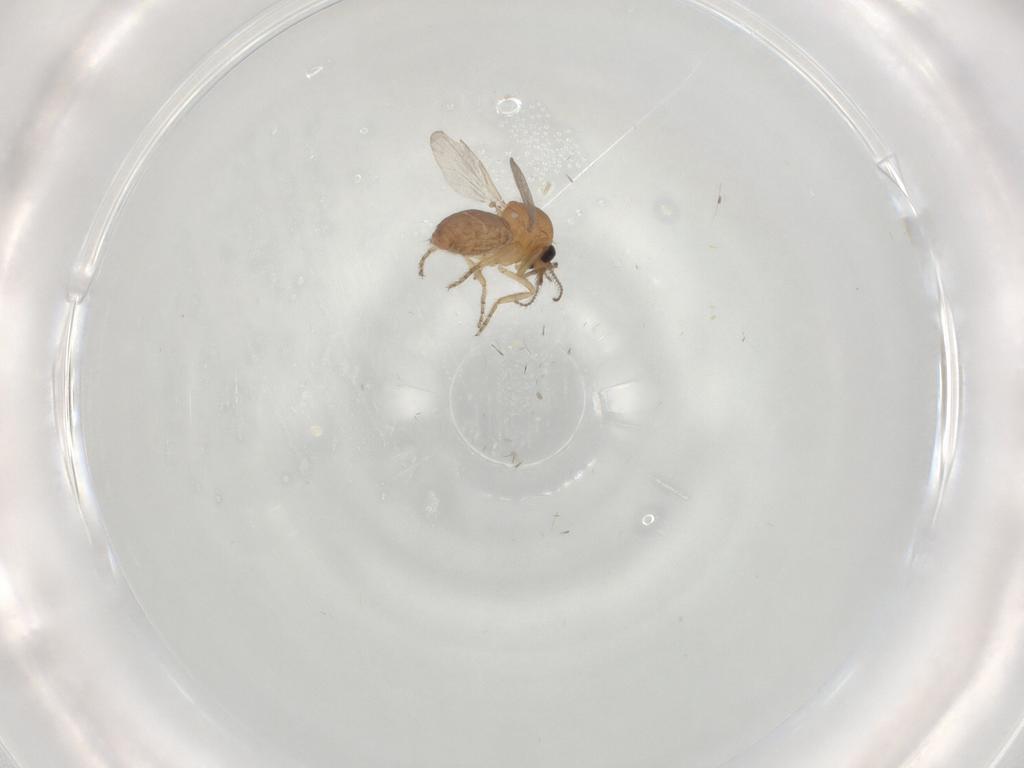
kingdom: Animalia
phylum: Arthropoda
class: Insecta
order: Diptera
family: Ceratopogonidae
